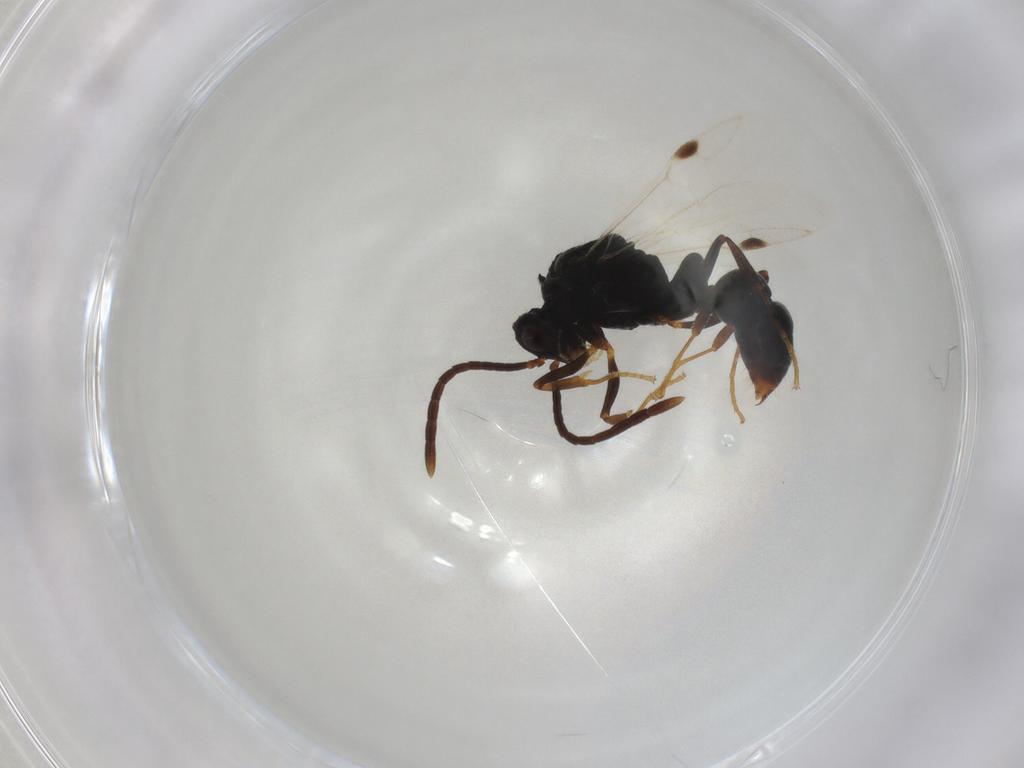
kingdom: Animalia
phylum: Arthropoda
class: Insecta
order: Hymenoptera
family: Formicidae
